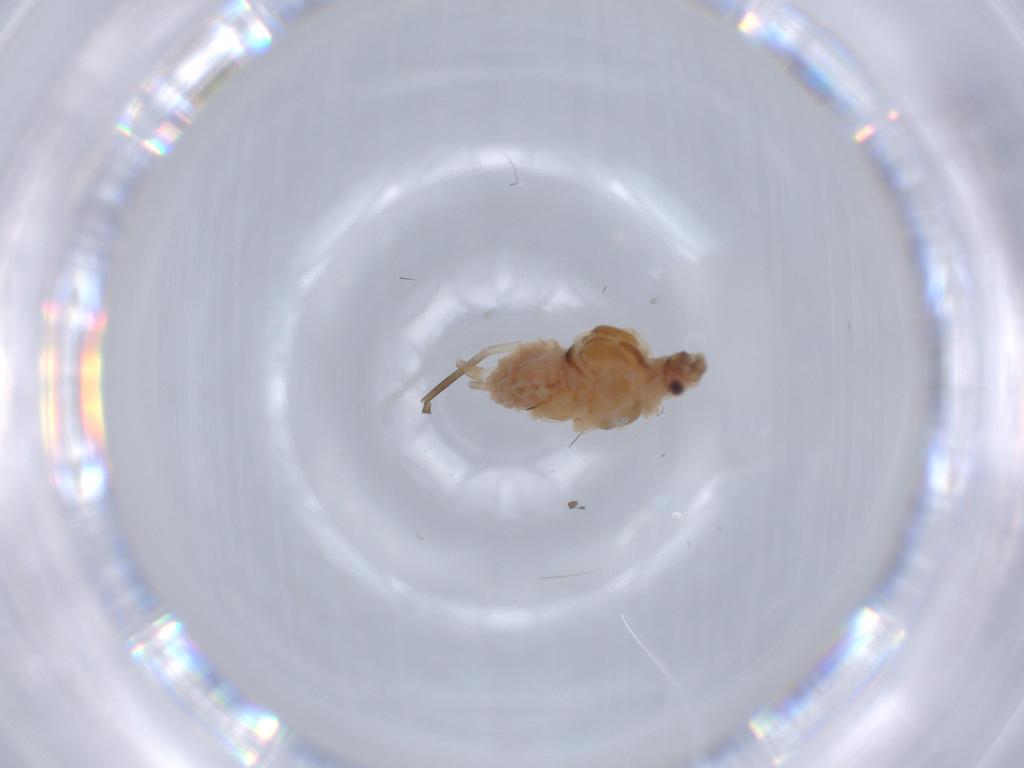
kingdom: Animalia
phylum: Arthropoda
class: Insecta
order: Hemiptera
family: Aphididae
